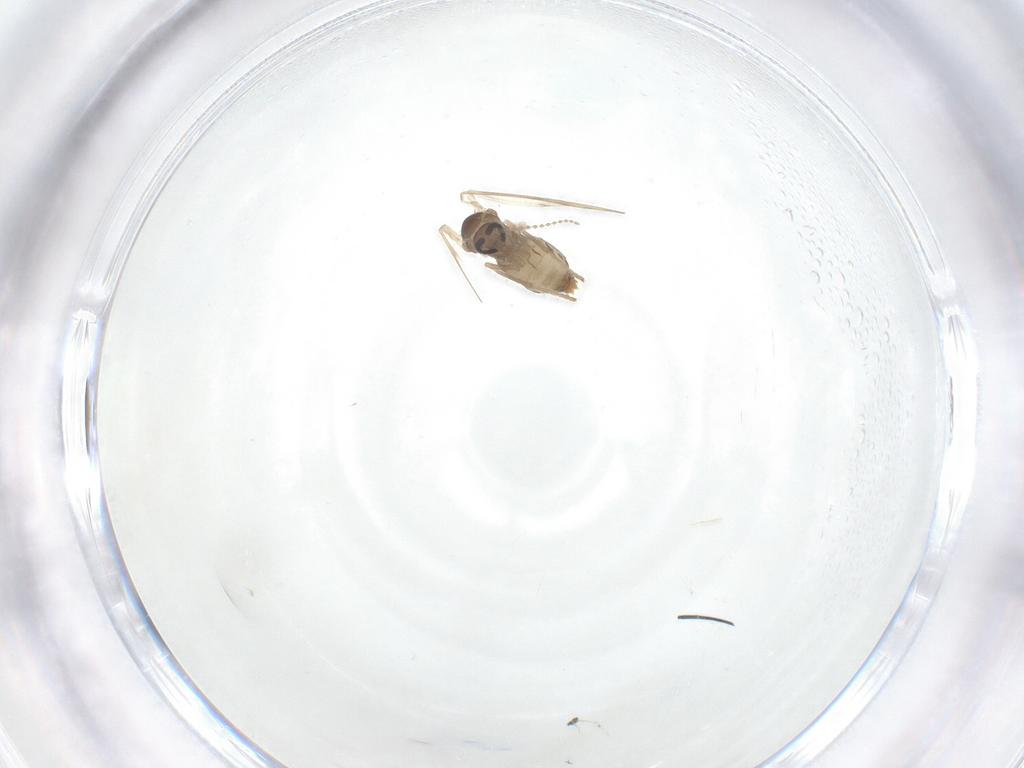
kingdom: Animalia
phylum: Arthropoda
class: Insecta
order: Diptera
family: Psychodidae
